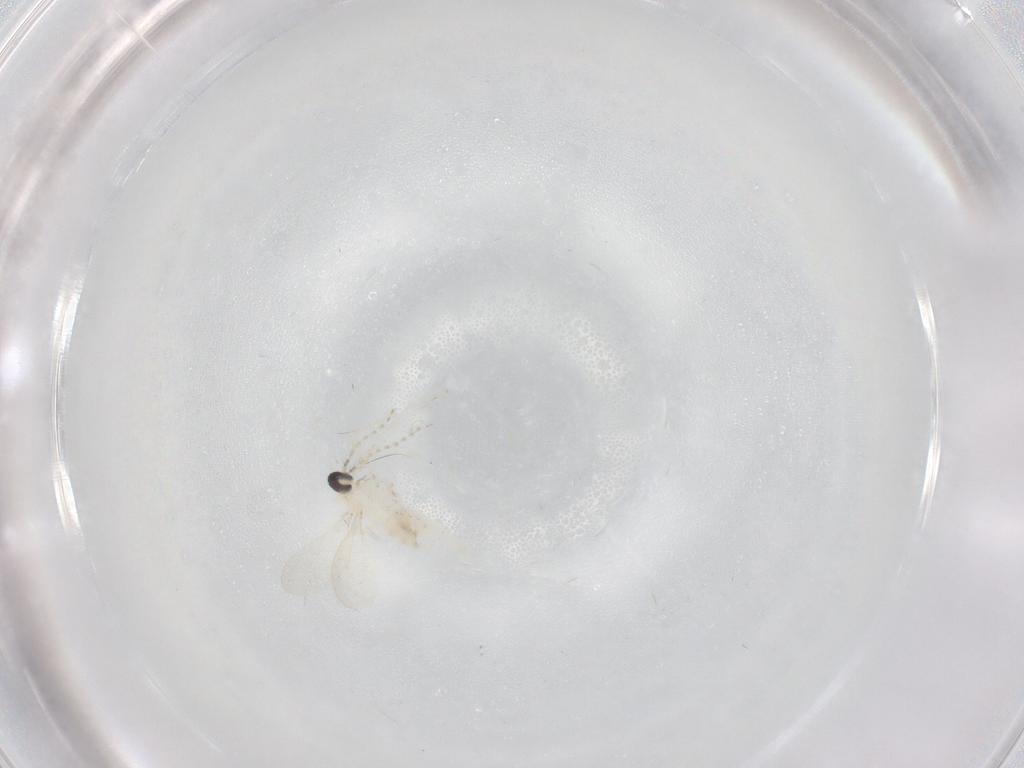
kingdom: Animalia
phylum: Arthropoda
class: Insecta
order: Diptera
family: Cecidomyiidae
